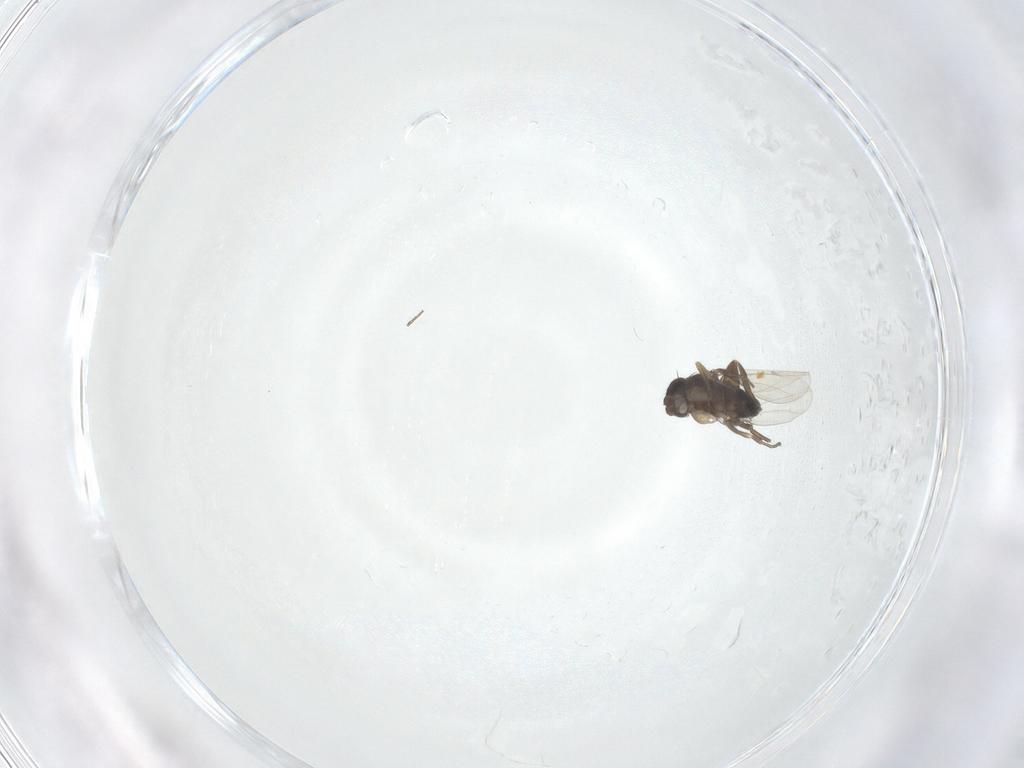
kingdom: Animalia
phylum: Arthropoda
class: Insecta
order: Diptera
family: Phoridae
